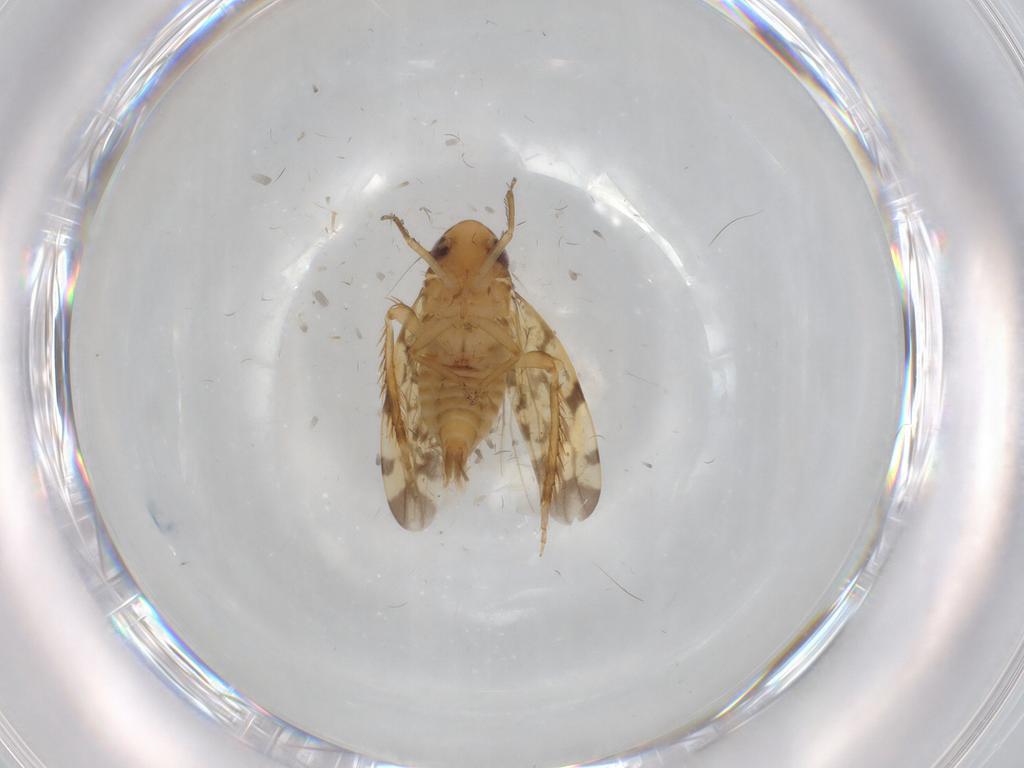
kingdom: Animalia
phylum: Arthropoda
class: Insecta
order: Hemiptera
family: Cicadellidae
